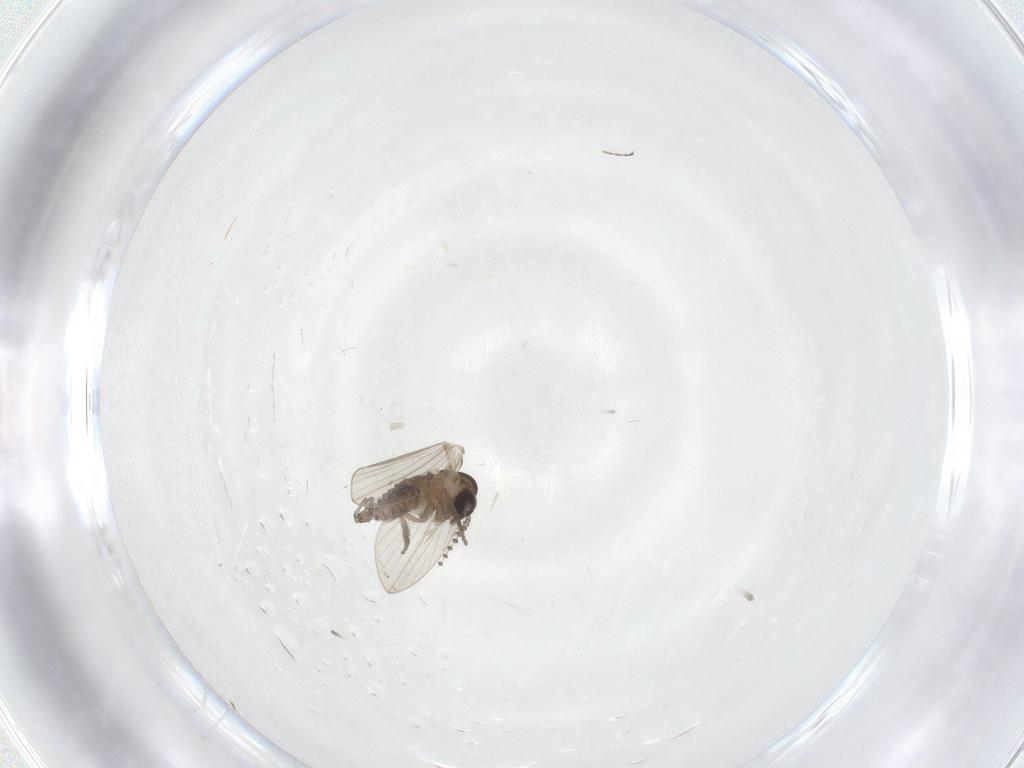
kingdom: Animalia
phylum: Arthropoda
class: Insecta
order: Diptera
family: Psychodidae
